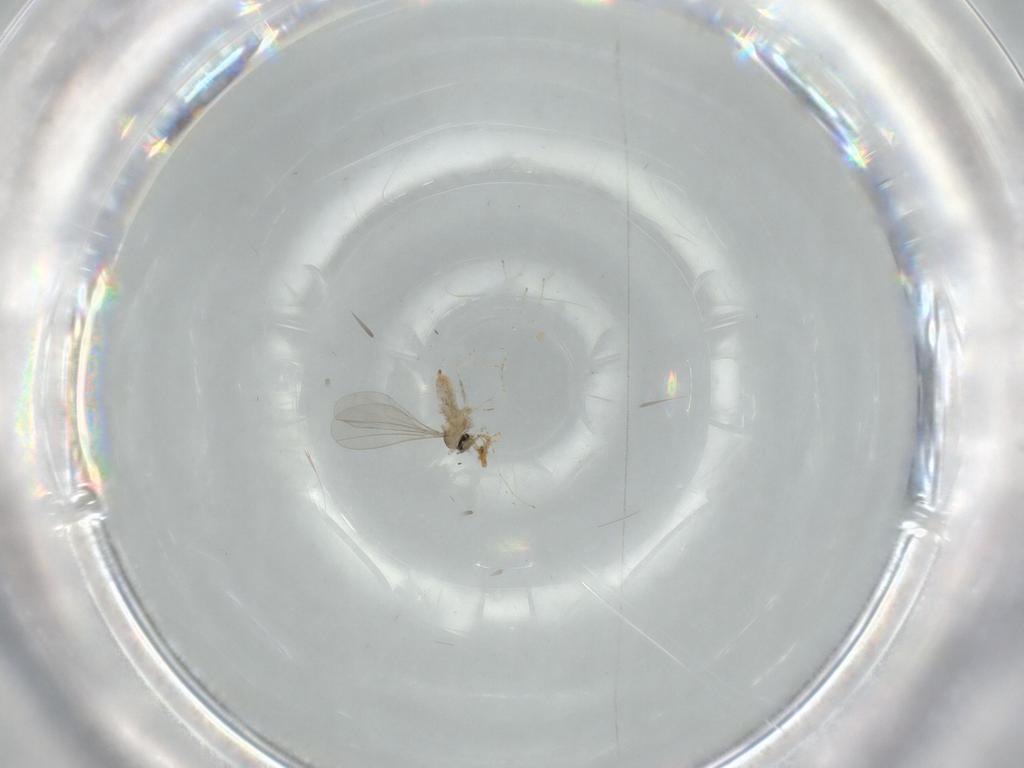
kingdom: Animalia
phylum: Arthropoda
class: Insecta
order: Diptera
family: Cecidomyiidae
